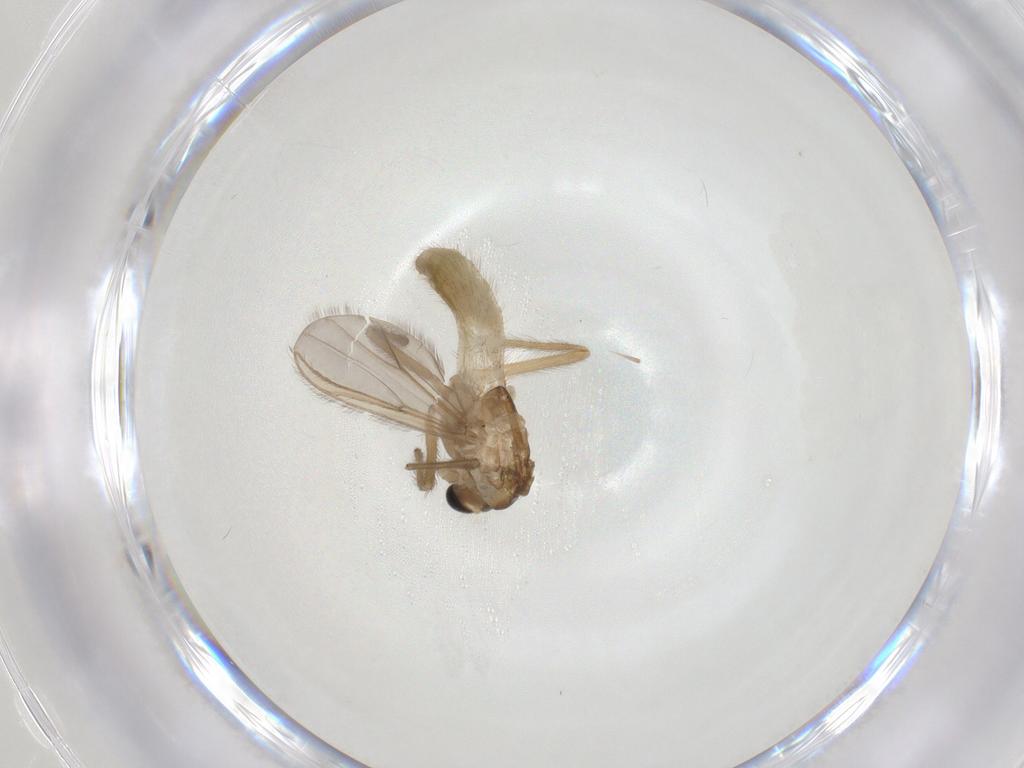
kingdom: Animalia
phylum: Arthropoda
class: Insecta
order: Diptera
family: Chironomidae
